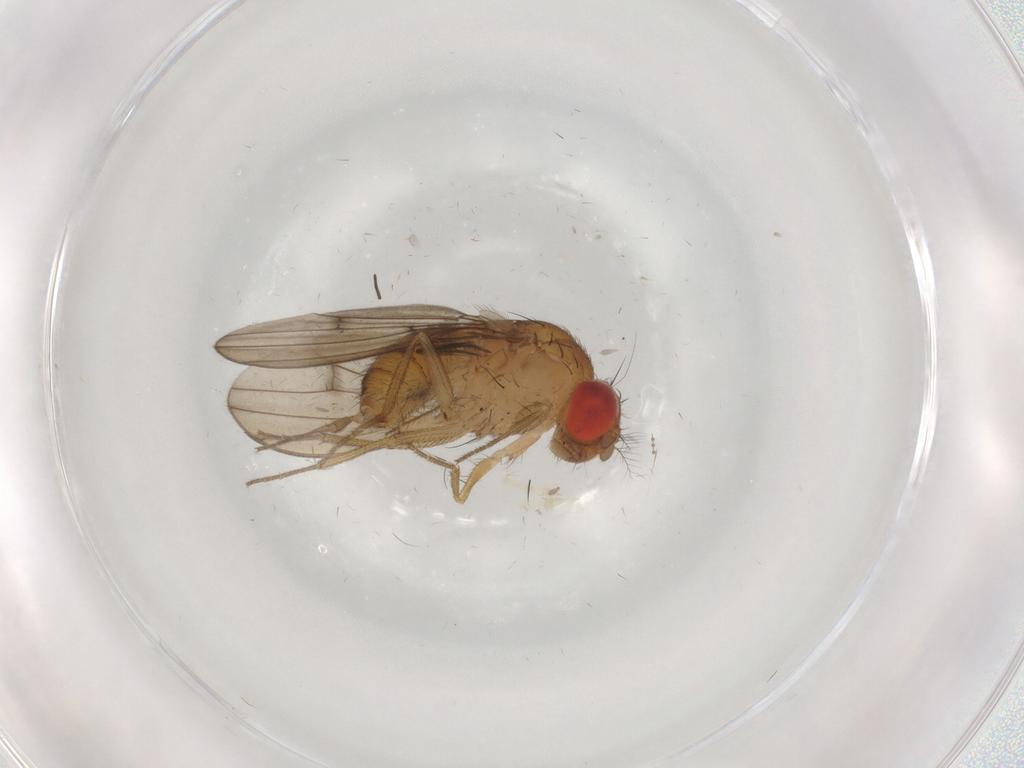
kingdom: Animalia
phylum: Arthropoda
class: Insecta
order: Diptera
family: Drosophilidae
